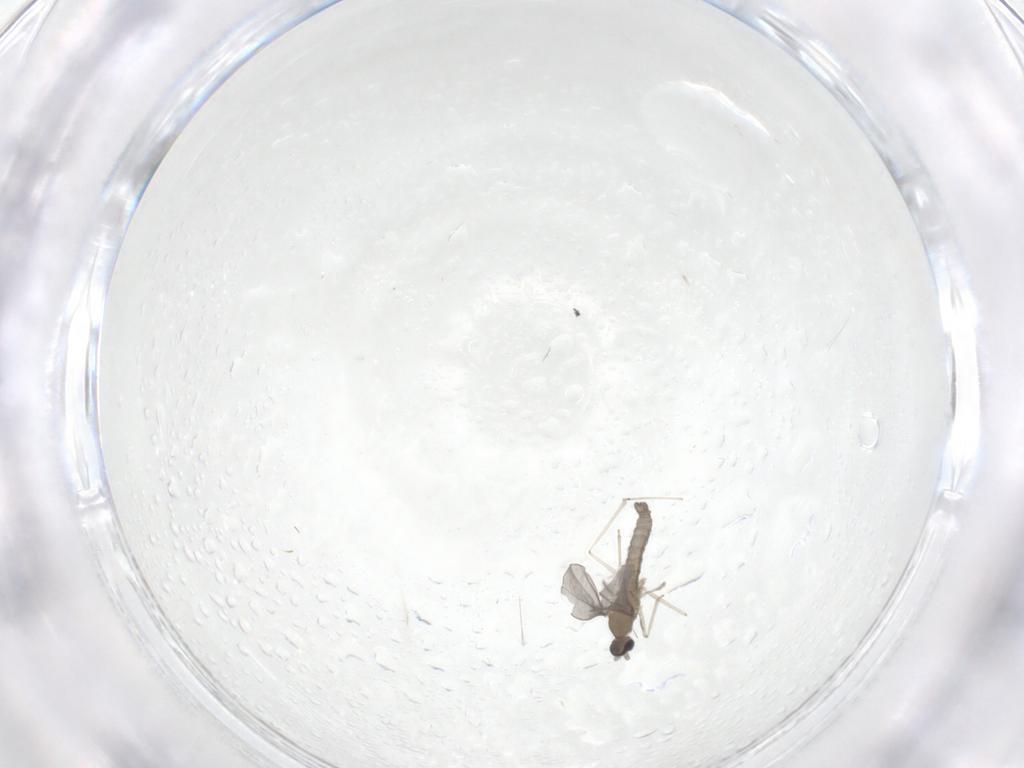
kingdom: Animalia
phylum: Arthropoda
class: Insecta
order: Diptera
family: Cecidomyiidae
